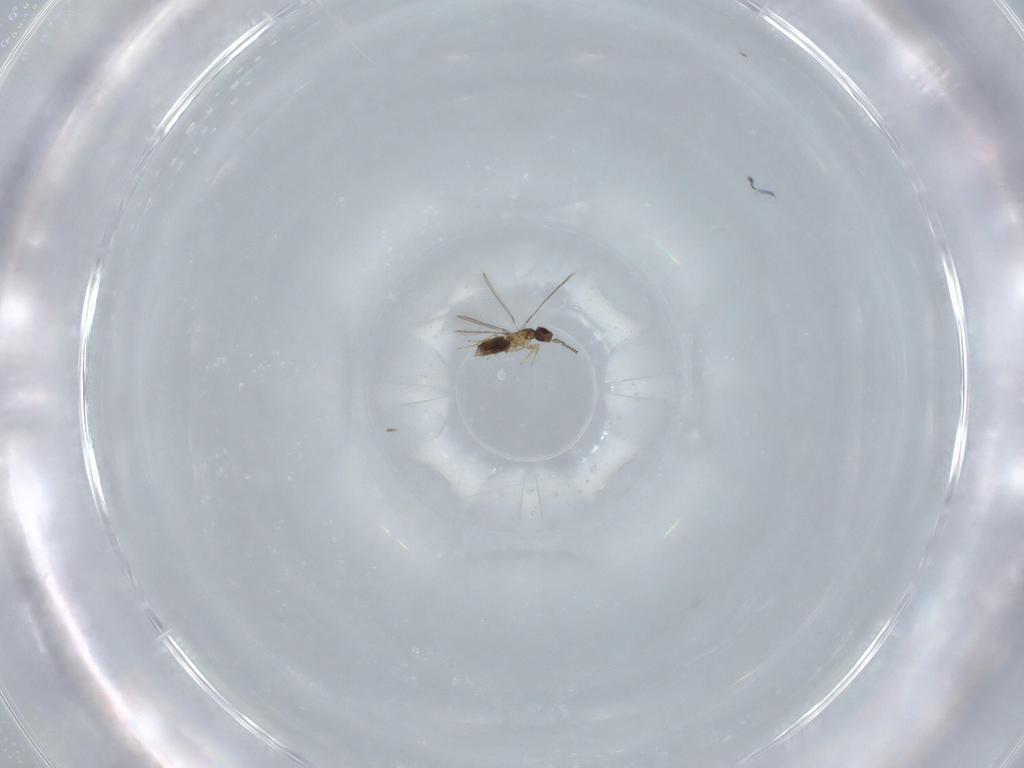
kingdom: Animalia
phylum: Arthropoda
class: Insecta
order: Hymenoptera
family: Mymaridae
